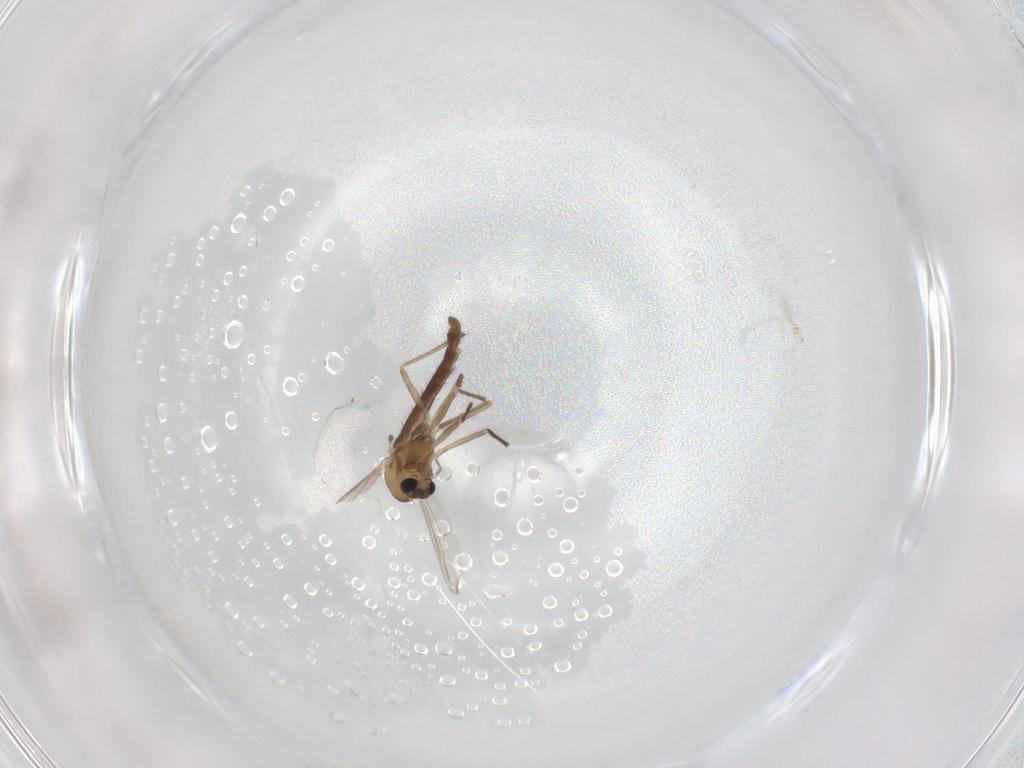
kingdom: Animalia
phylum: Arthropoda
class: Insecta
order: Diptera
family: Chironomidae
